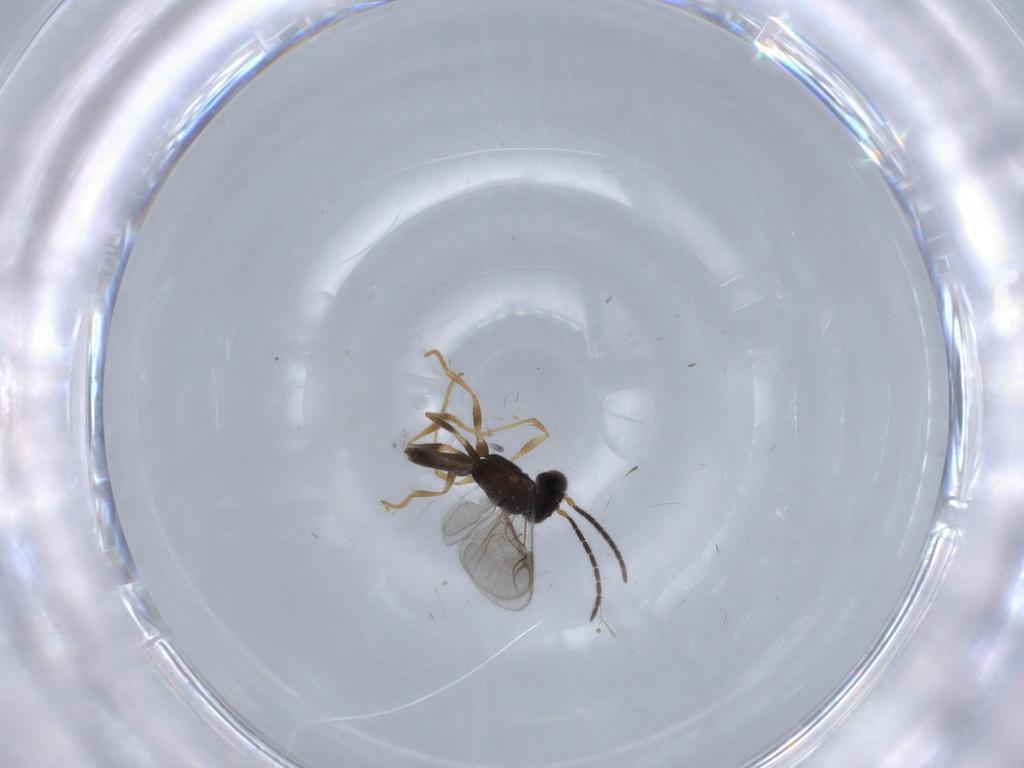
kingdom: Animalia
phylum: Arthropoda
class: Insecta
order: Hymenoptera
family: Dryinidae
